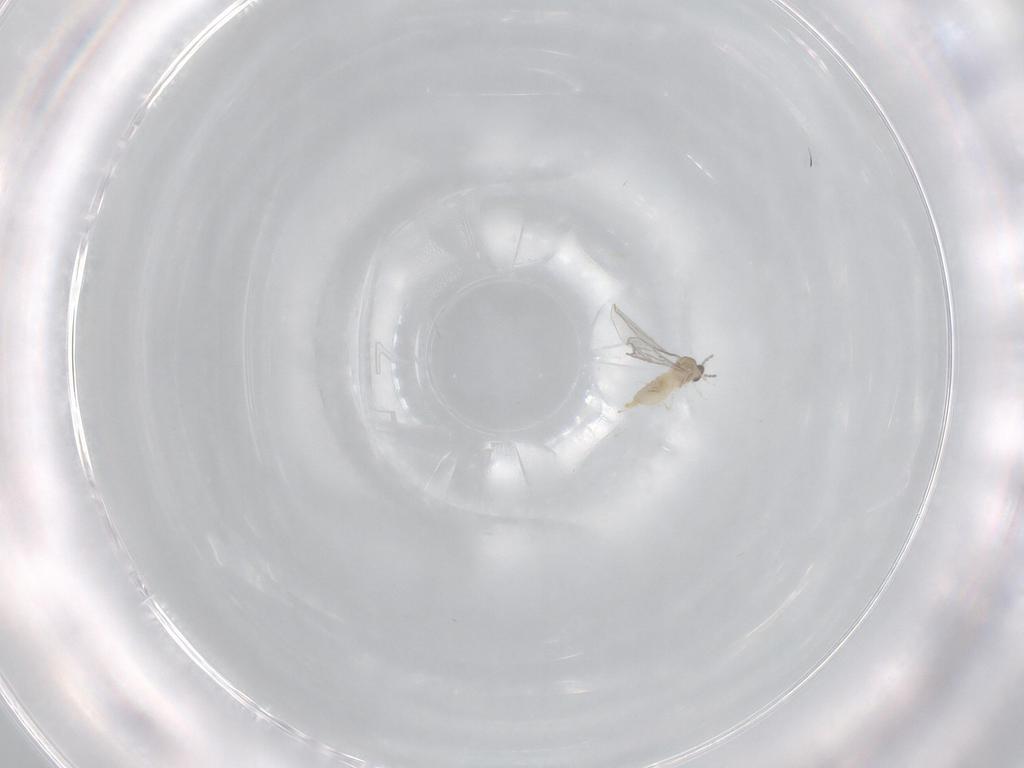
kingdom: Animalia
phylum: Arthropoda
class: Insecta
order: Diptera
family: Cecidomyiidae
